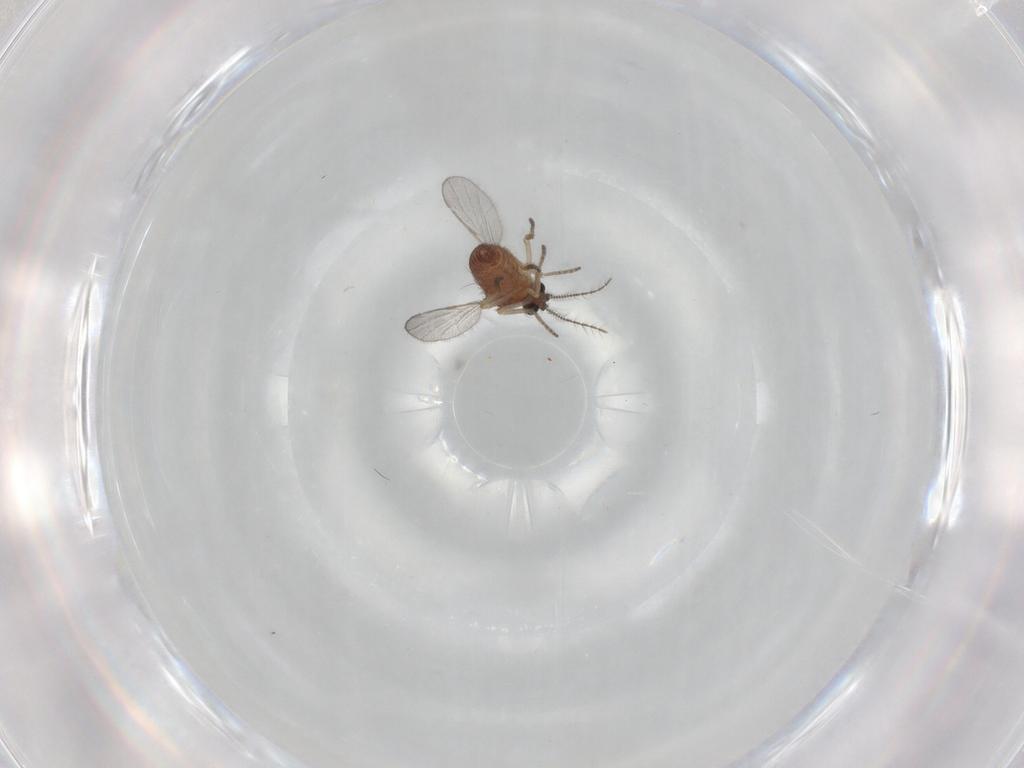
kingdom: Animalia
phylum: Arthropoda
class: Insecta
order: Diptera
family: Ceratopogonidae
